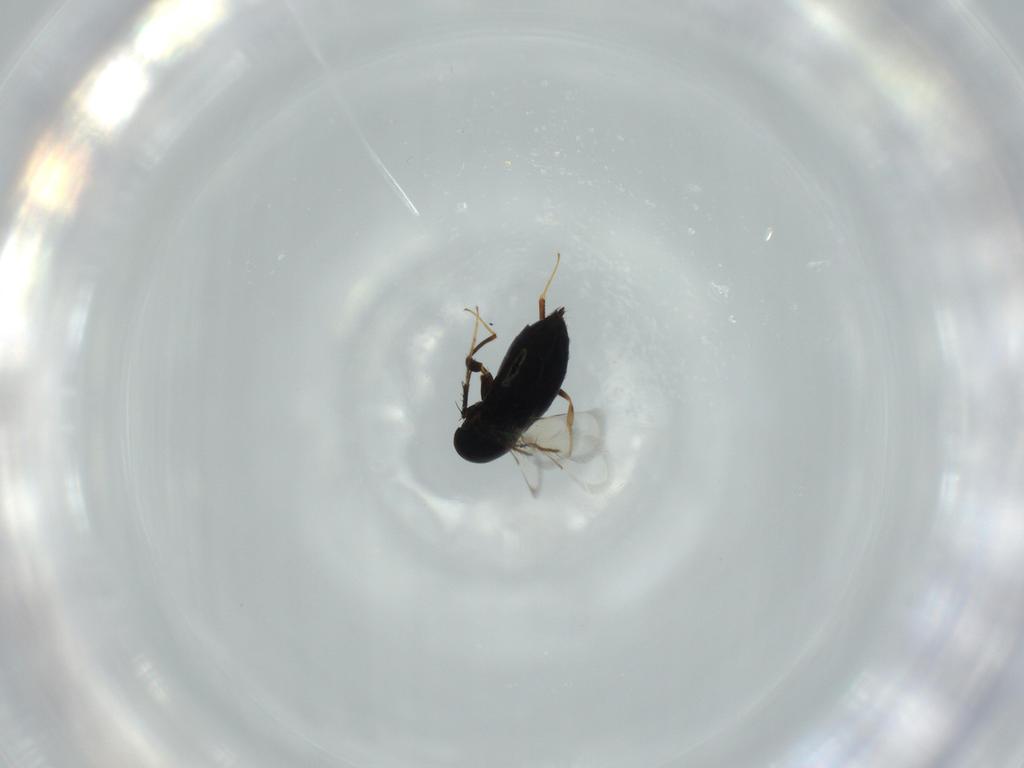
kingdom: Animalia
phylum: Arthropoda
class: Insecta
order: Hymenoptera
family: Signiphoridae
